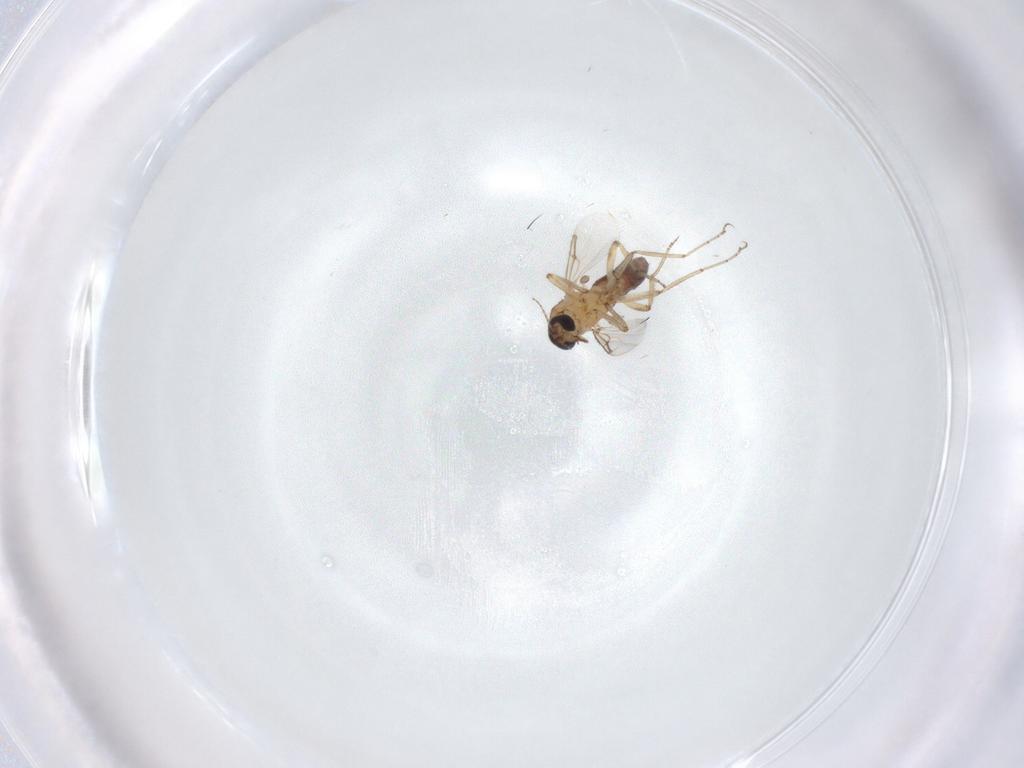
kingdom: Animalia
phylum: Arthropoda
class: Insecta
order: Diptera
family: Ceratopogonidae
